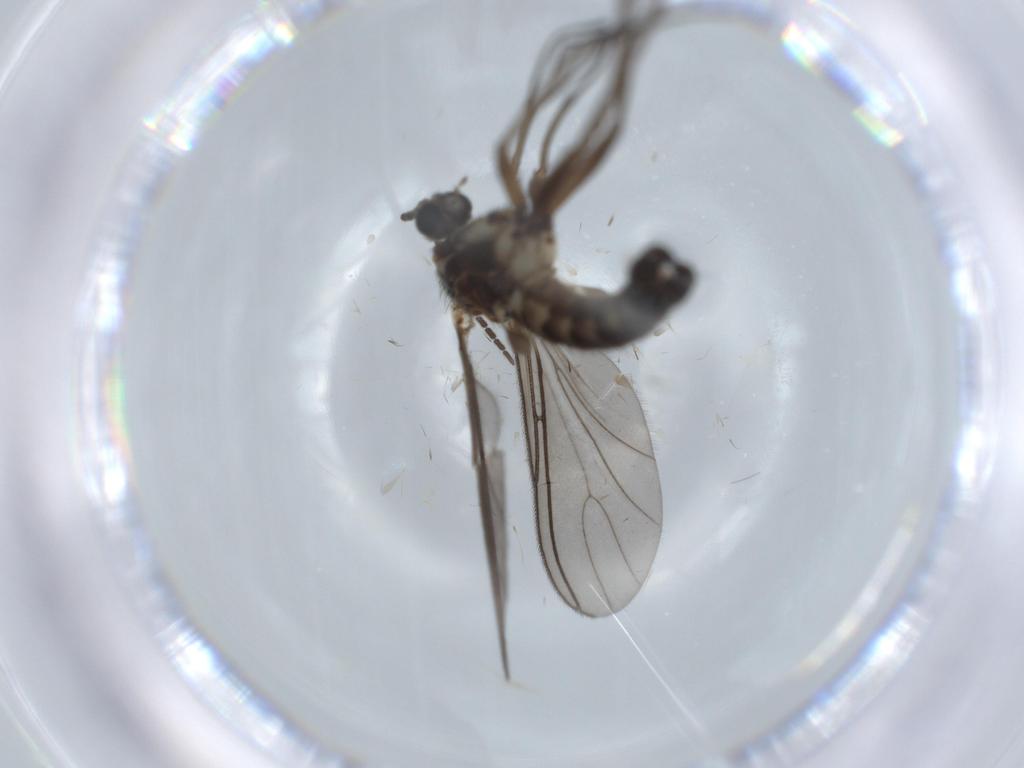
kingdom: Animalia
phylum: Arthropoda
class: Insecta
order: Diptera
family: Sciaridae
